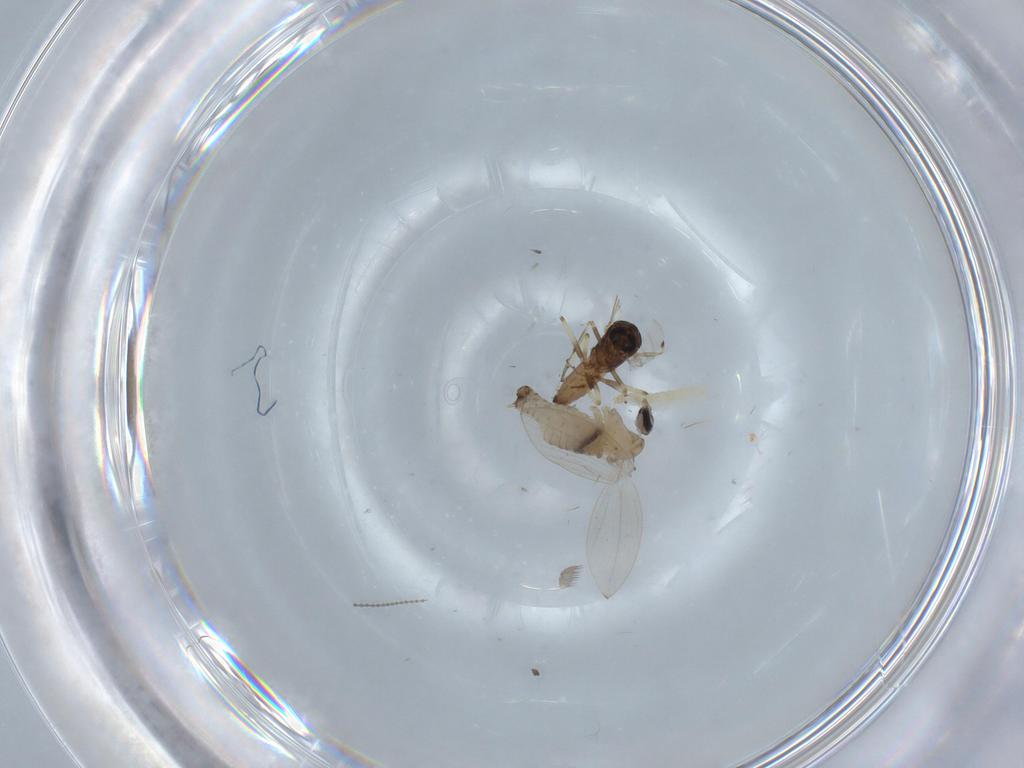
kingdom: Animalia
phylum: Arthropoda
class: Insecta
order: Diptera
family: Psychodidae
